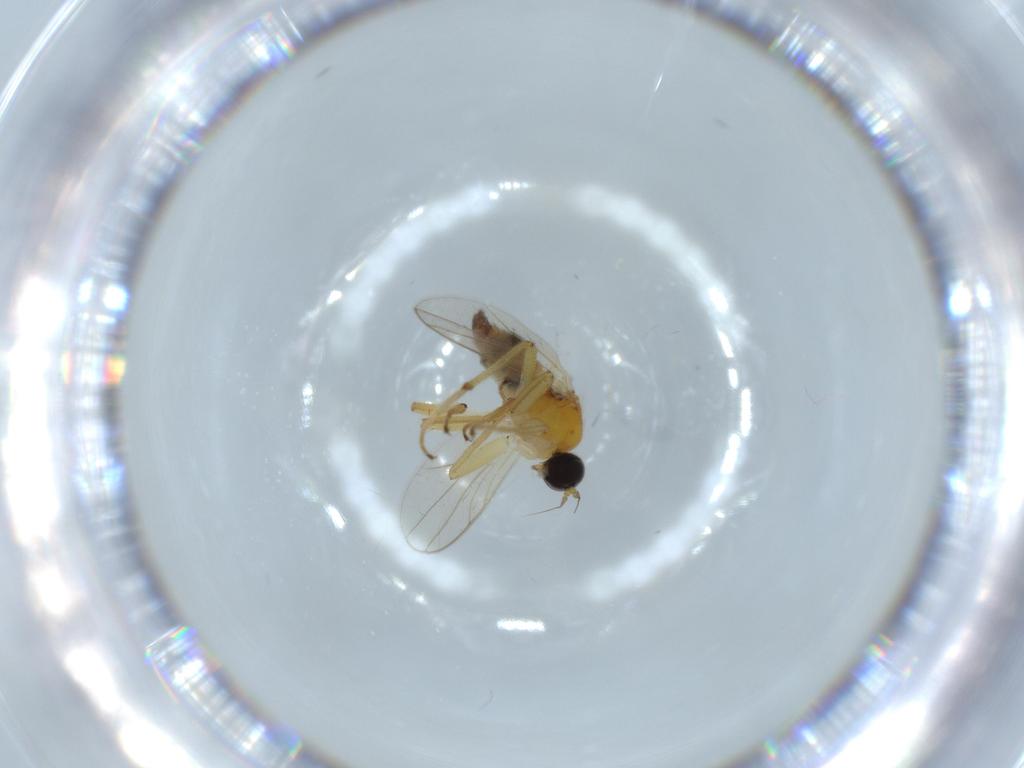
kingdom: Animalia
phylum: Arthropoda
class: Insecta
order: Diptera
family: Hybotidae
